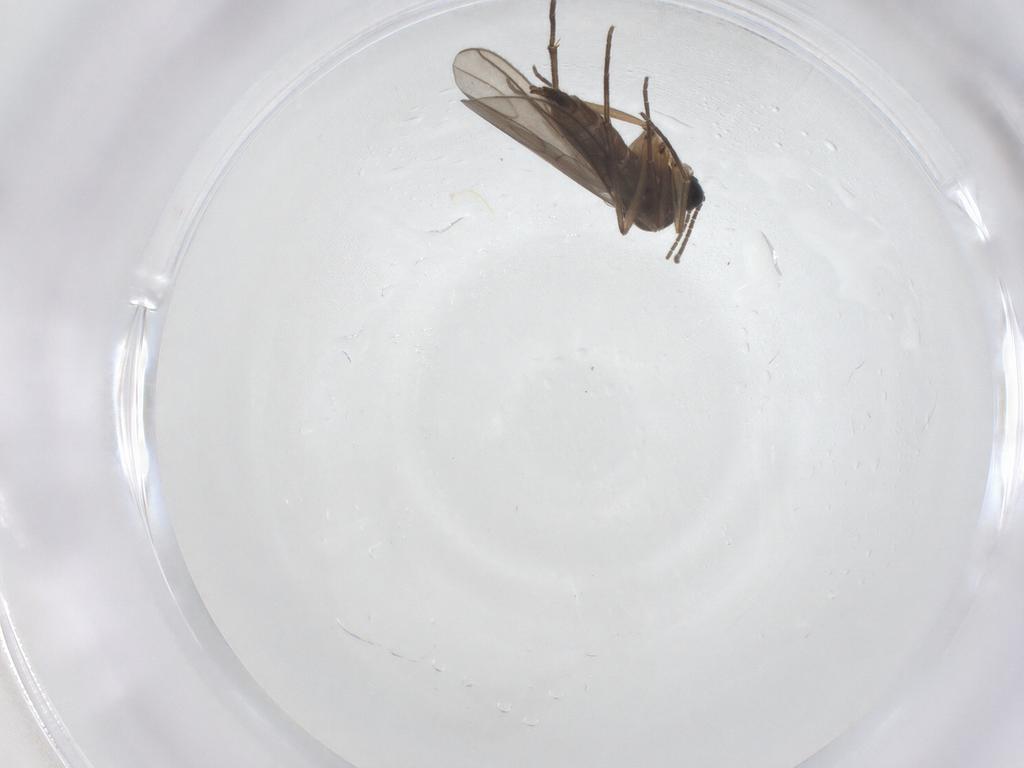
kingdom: Animalia
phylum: Arthropoda
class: Insecta
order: Diptera
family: Sciaridae
